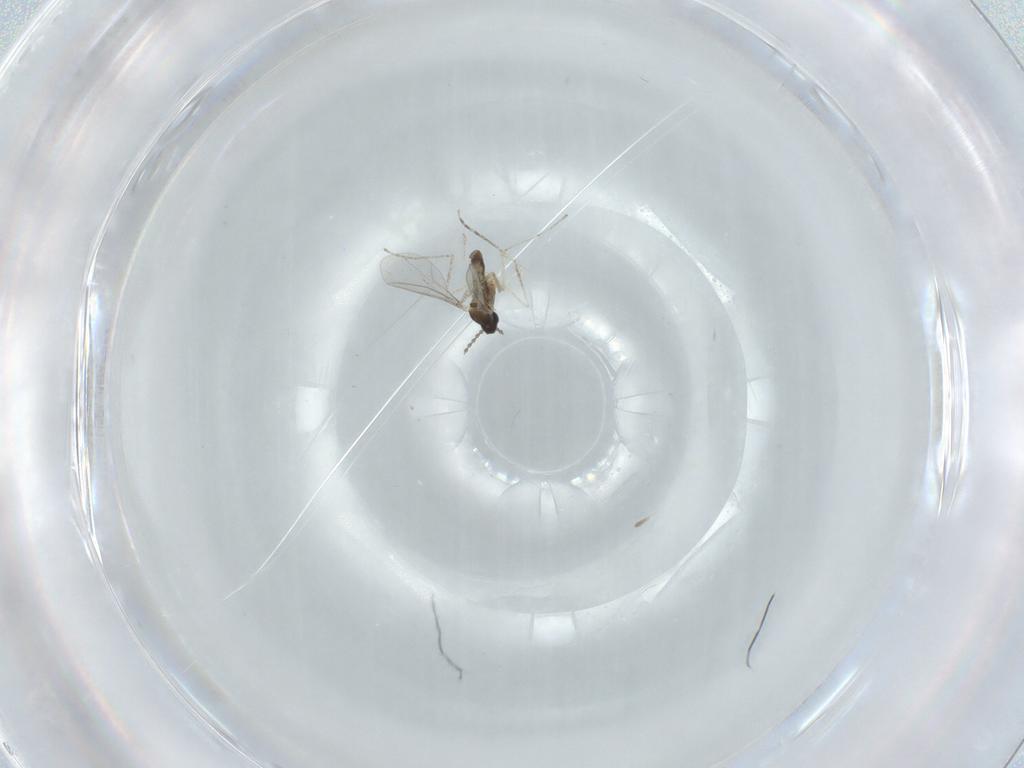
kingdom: Animalia
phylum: Arthropoda
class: Insecta
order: Diptera
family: Cecidomyiidae
